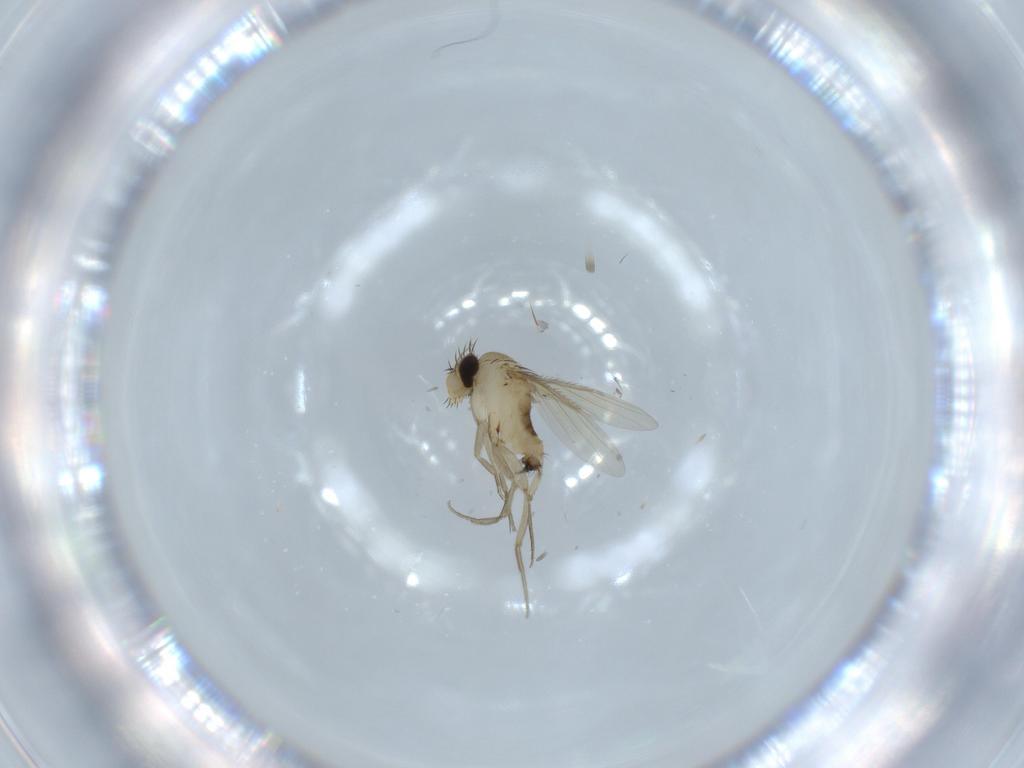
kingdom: Animalia
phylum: Arthropoda
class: Insecta
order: Diptera
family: Phoridae
